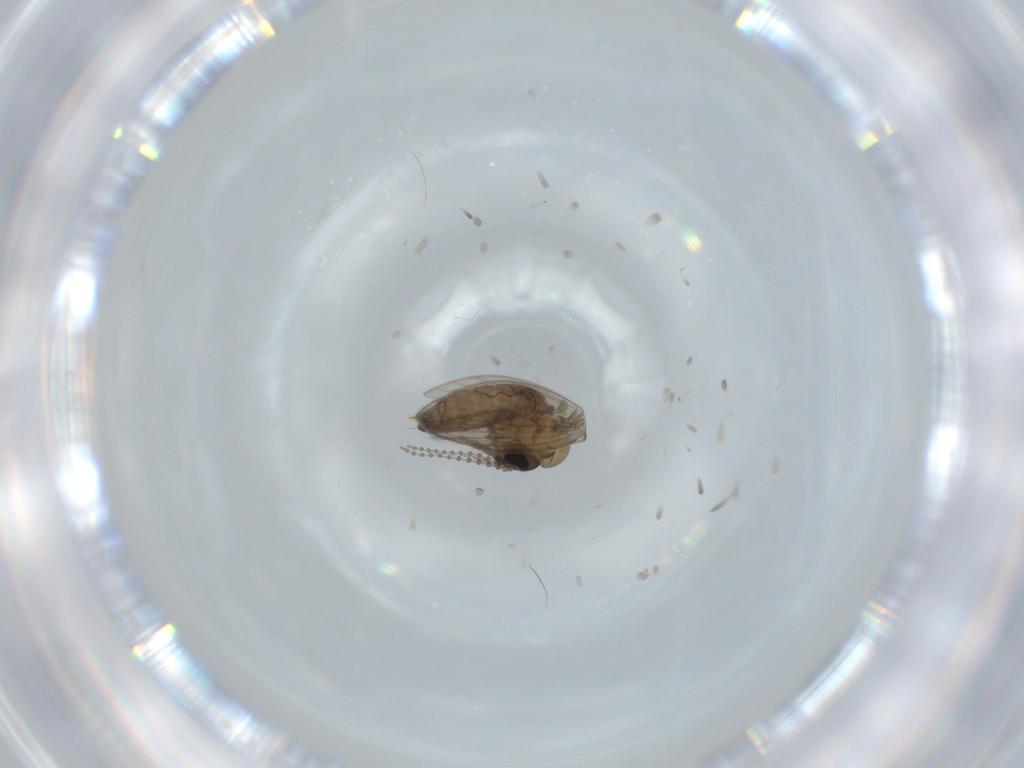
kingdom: Animalia
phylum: Arthropoda
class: Insecta
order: Diptera
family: Psychodidae
